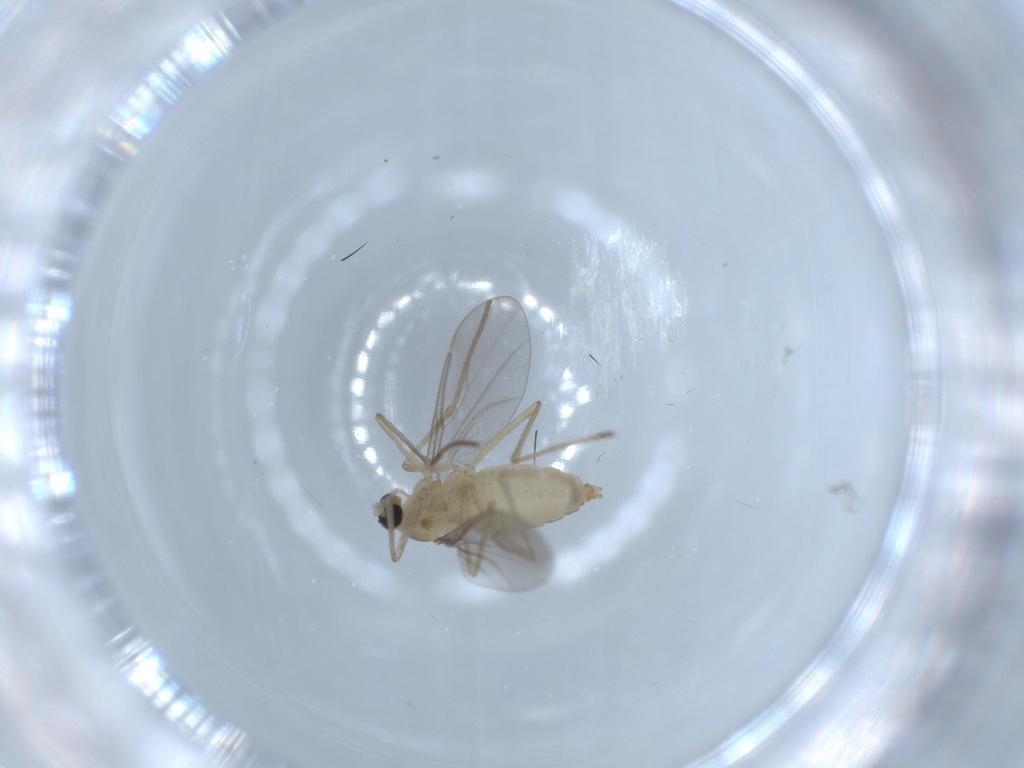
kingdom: Animalia
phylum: Arthropoda
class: Insecta
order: Diptera
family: Cecidomyiidae
